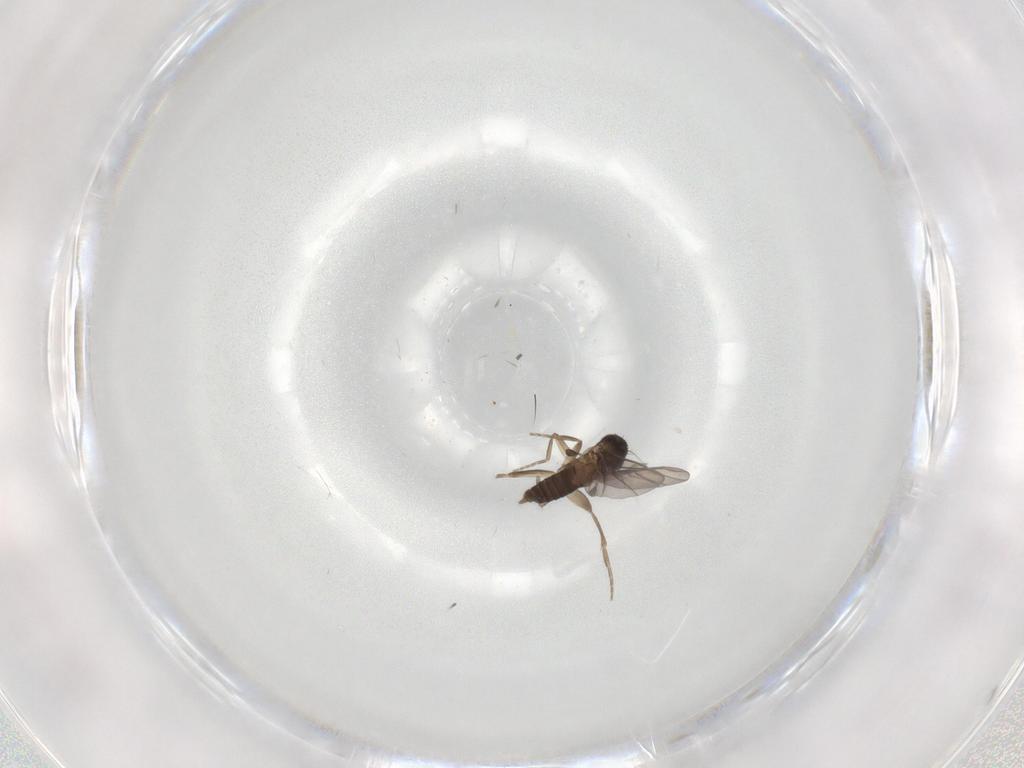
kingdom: Animalia
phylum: Arthropoda
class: Insecta
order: Diptera
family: Phoridae
